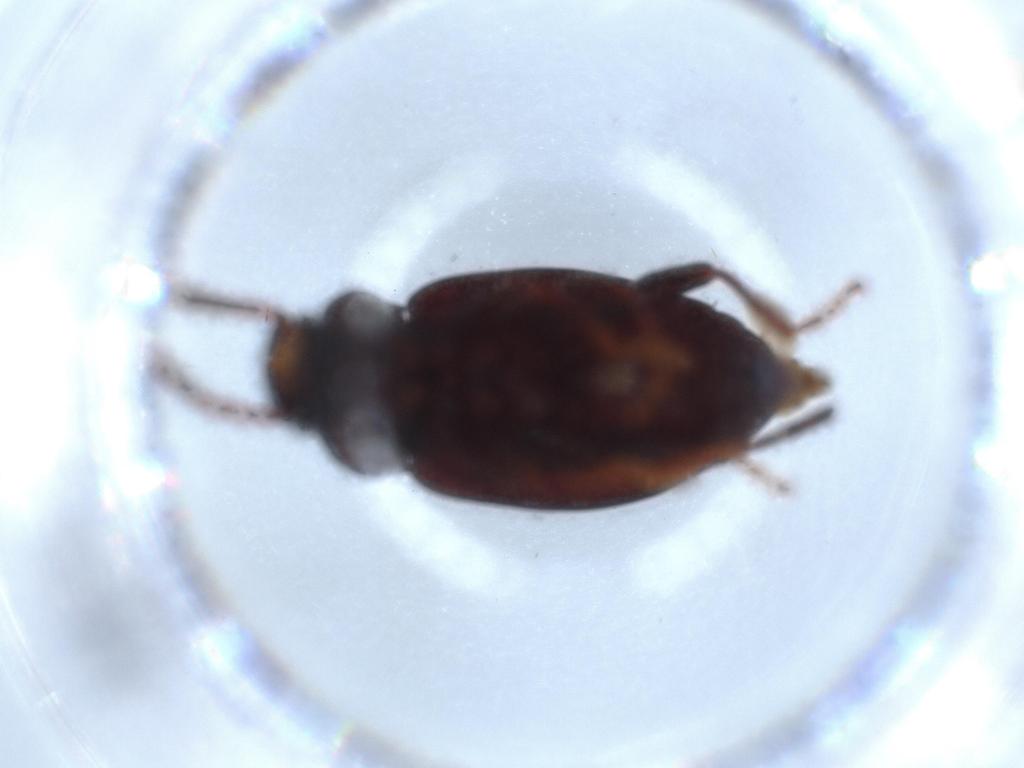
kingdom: Animalia
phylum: Arthropoda
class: Insecta
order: Diptera
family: Sciaridae
